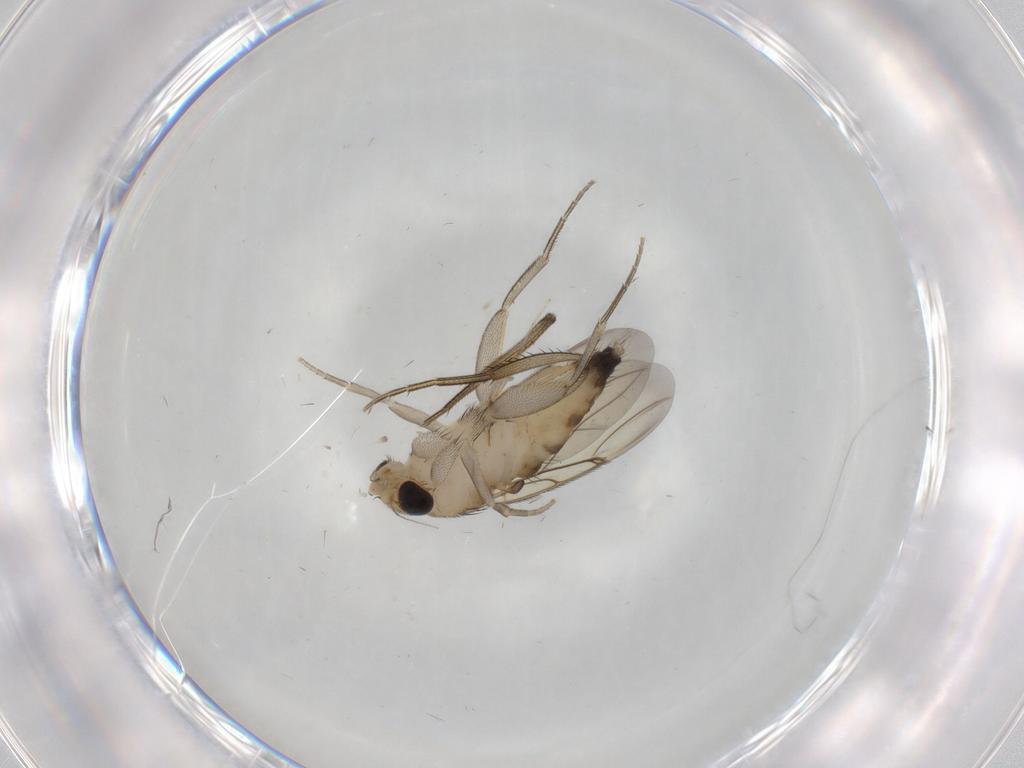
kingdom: Animalia
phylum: Arthropoda
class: Insecta
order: Diptera
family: Phoridae
